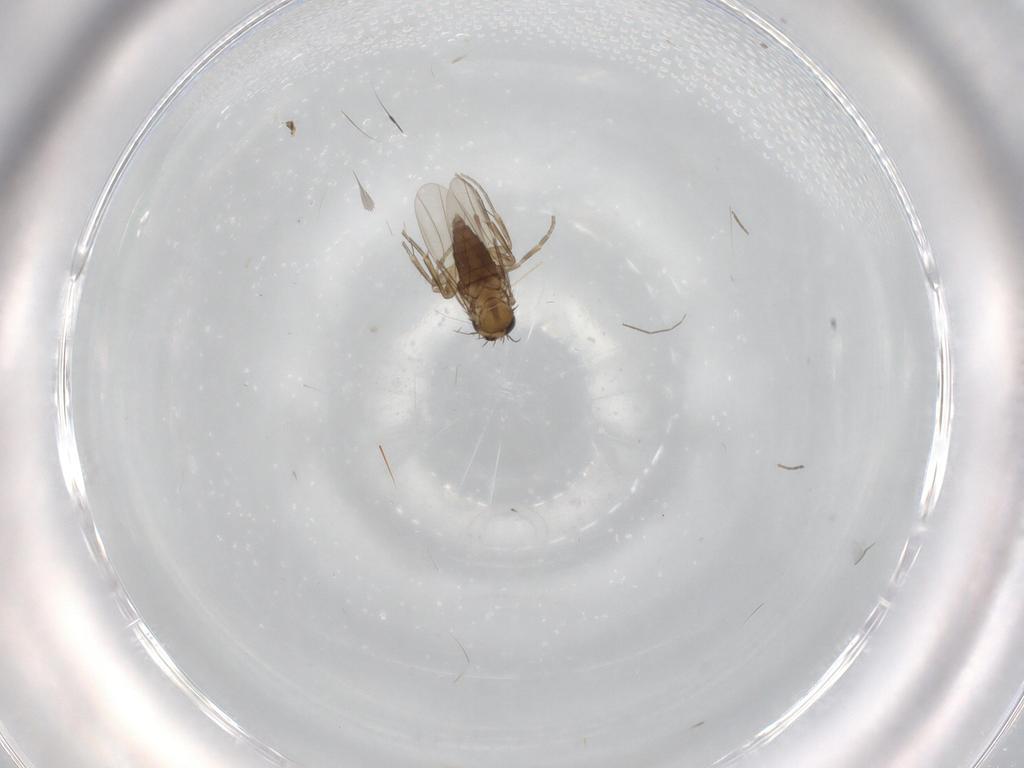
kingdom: Animalia
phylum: Arthropoda
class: Insecta
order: Diptera
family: Phoridae
